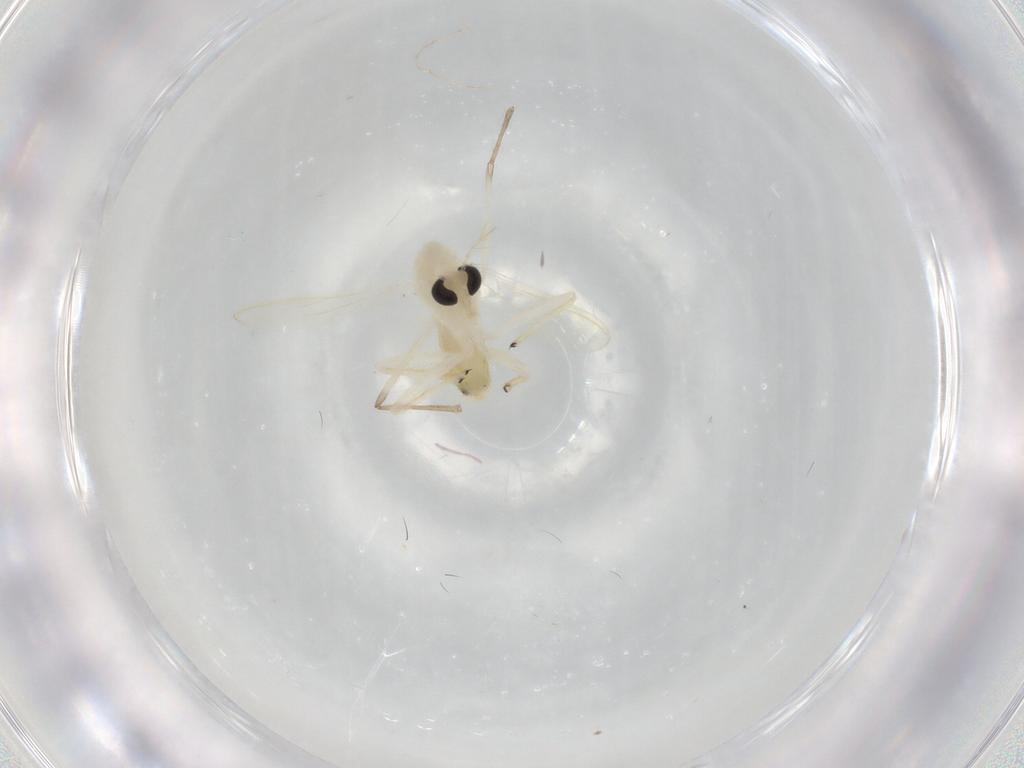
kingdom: Animalia
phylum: Arthropoda
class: Insecta
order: Diptera
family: Chironomidae
